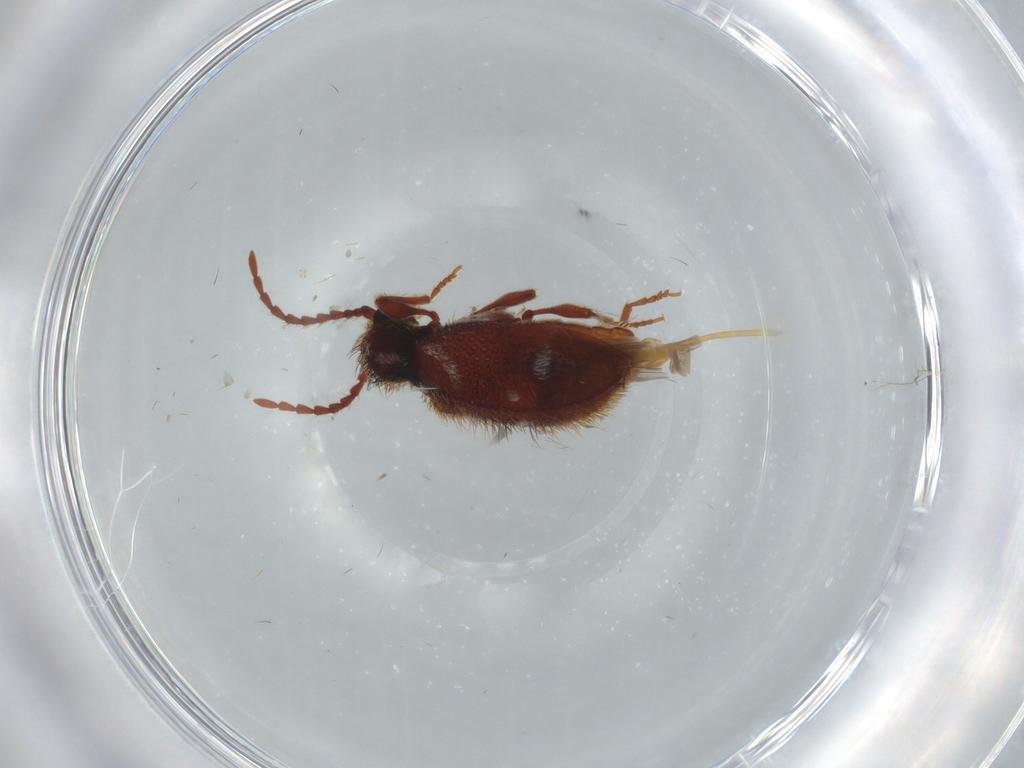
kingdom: Animalia
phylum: Arthropoda
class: Insecta
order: Coleoptera
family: Ptinidae
